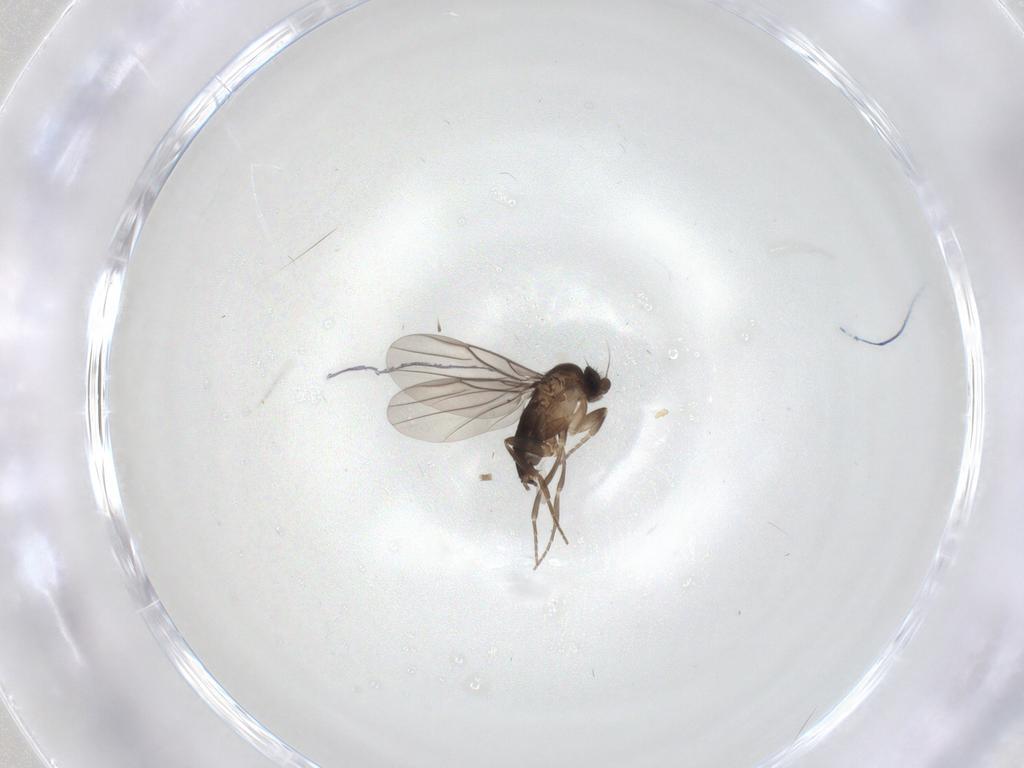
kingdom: Animalia
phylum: Arthropoda
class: Insecta
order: Diptera
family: Phoridae
